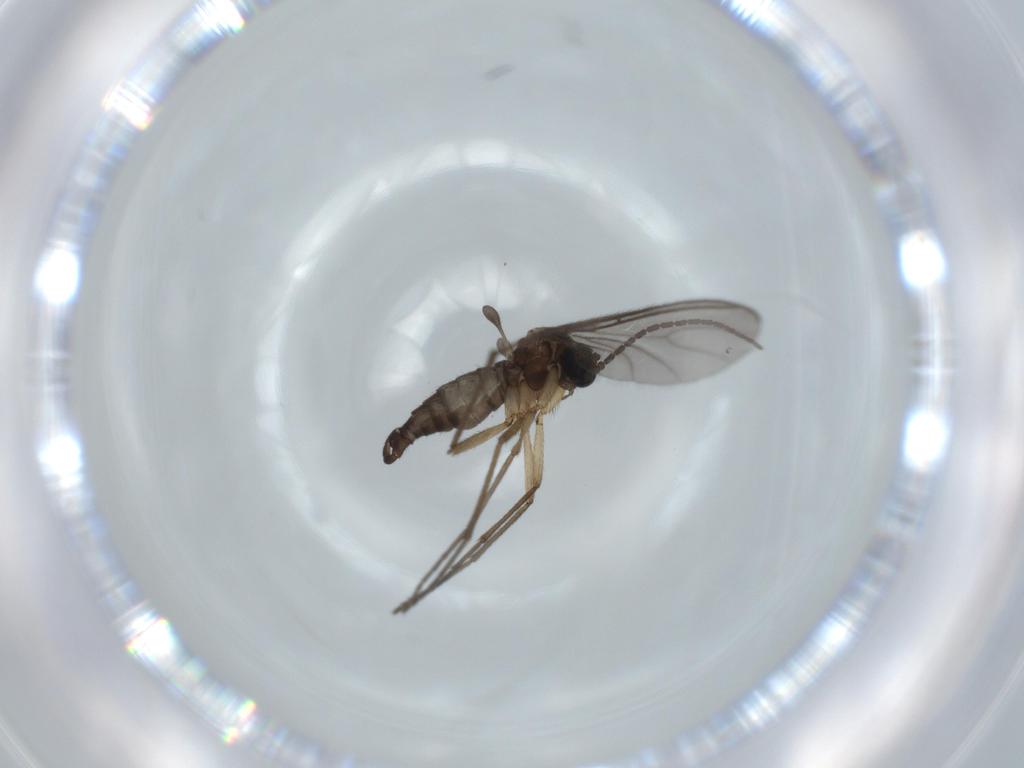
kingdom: Animalia
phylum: Arthropoda
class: Insecta
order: Diptera
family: Sciaridae
